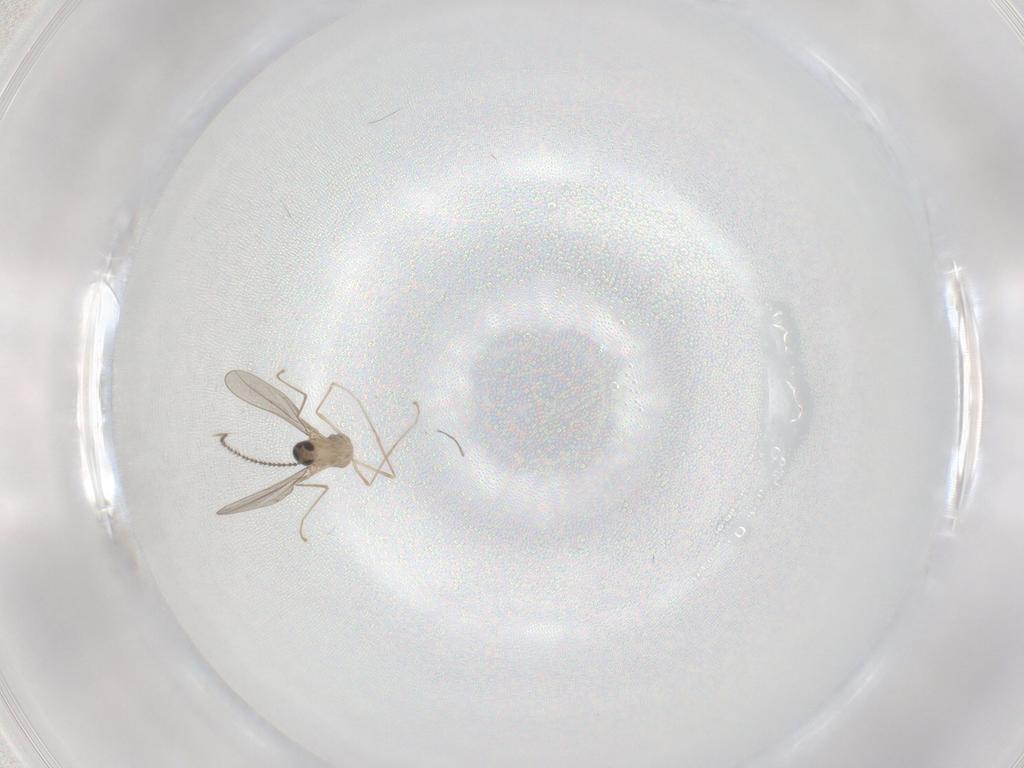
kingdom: Animalia
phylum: Arthropoda
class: Insecta
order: Diptera
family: Cecidomyiidae
